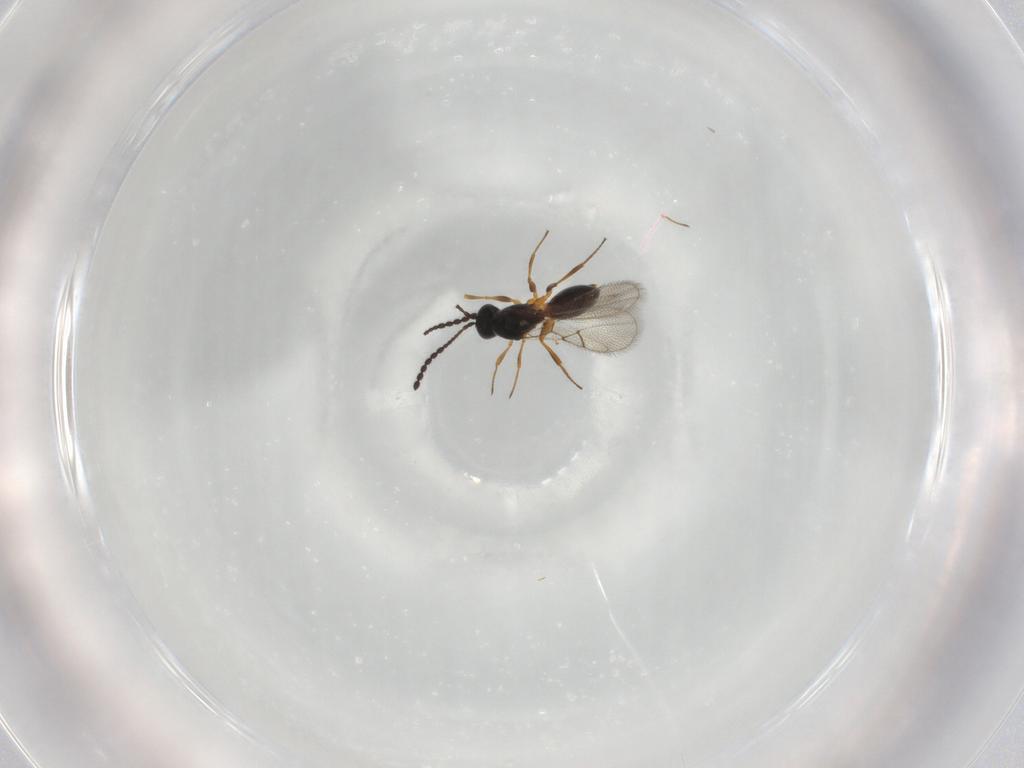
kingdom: Animalia
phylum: Arthropoda
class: Insecta
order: Hymenoptera
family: Figitidae
